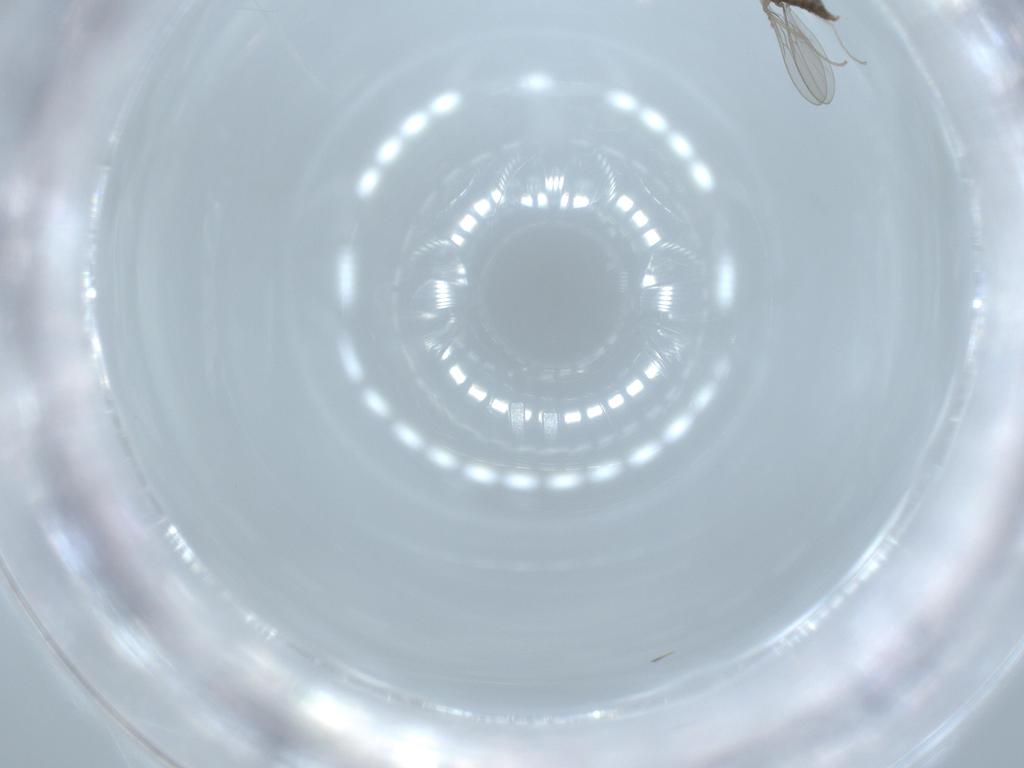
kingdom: Animalia
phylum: Arthropoda
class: Insecta
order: Diptera
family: Cecidomyiidae
